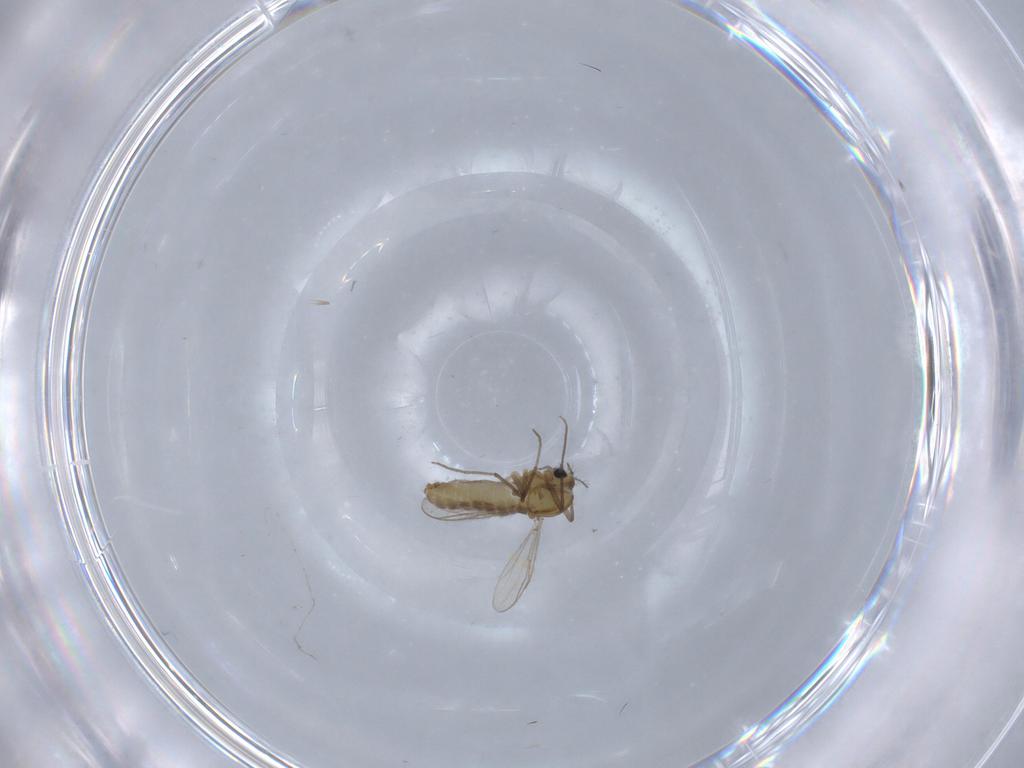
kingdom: Animalia
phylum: Arthropoda
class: Insecta
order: Diptera
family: Chironomidae
